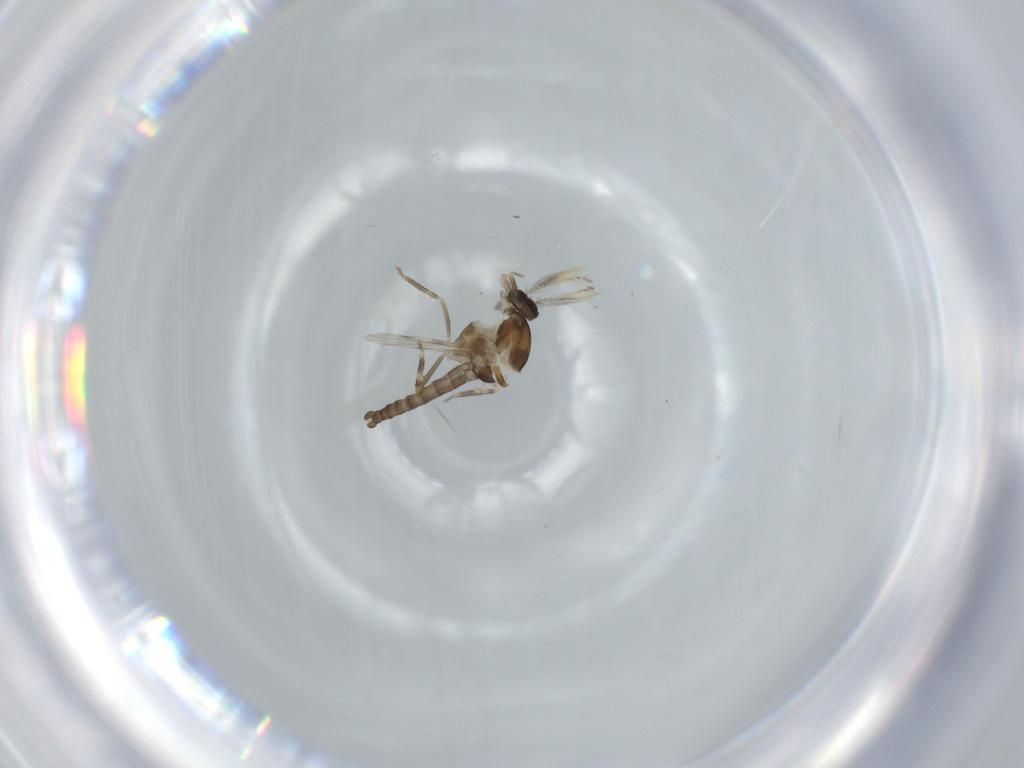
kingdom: Animalia
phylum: Arthropoda
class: Insecta
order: Diptera
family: Ceratopogonidae
